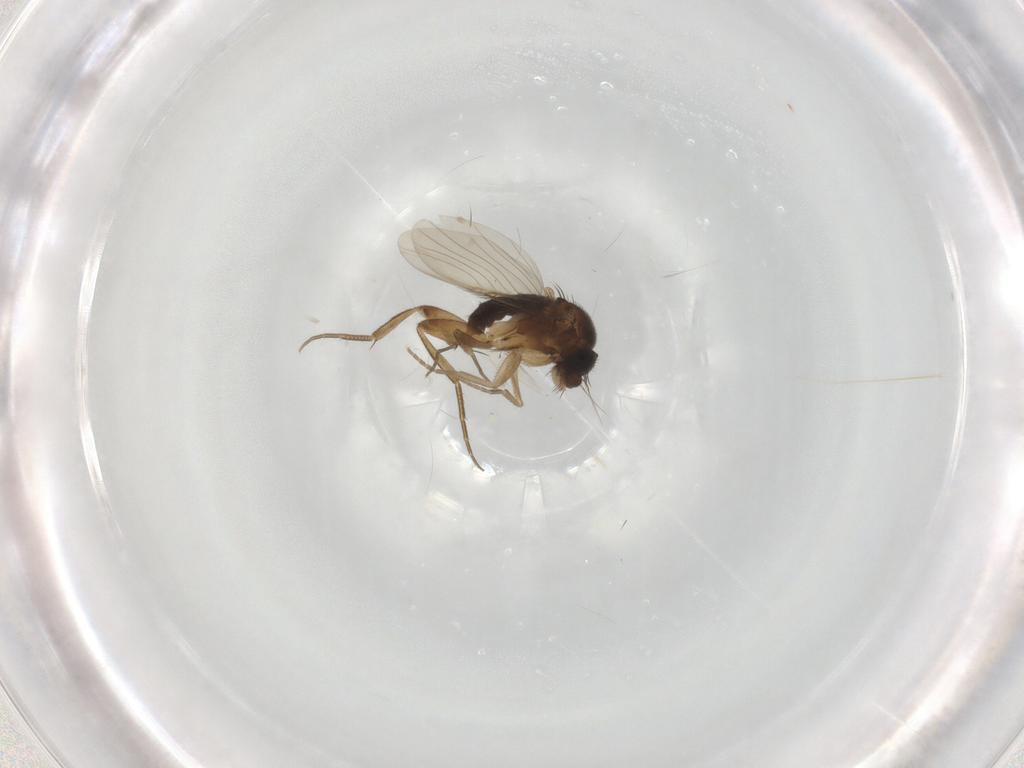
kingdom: Animalia
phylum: Arthropoda
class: Insecta
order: Diptera
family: Phoridae
